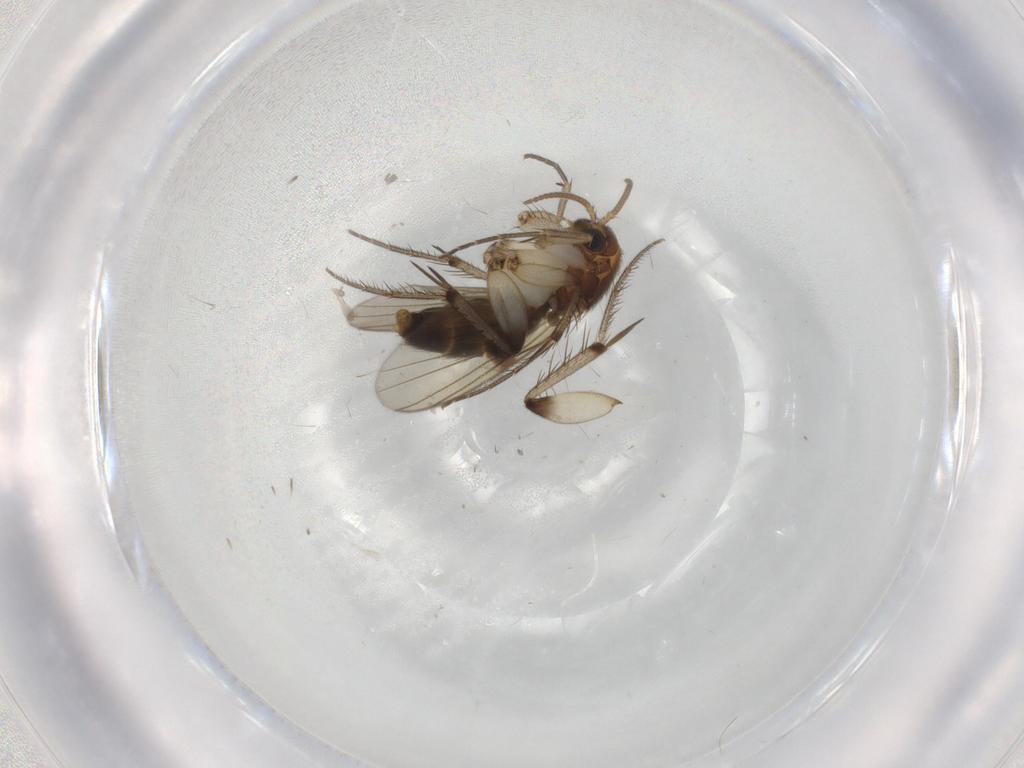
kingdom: Animalia
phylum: Arthropoda
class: Insecta
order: Diptera
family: Mycetophilidae
